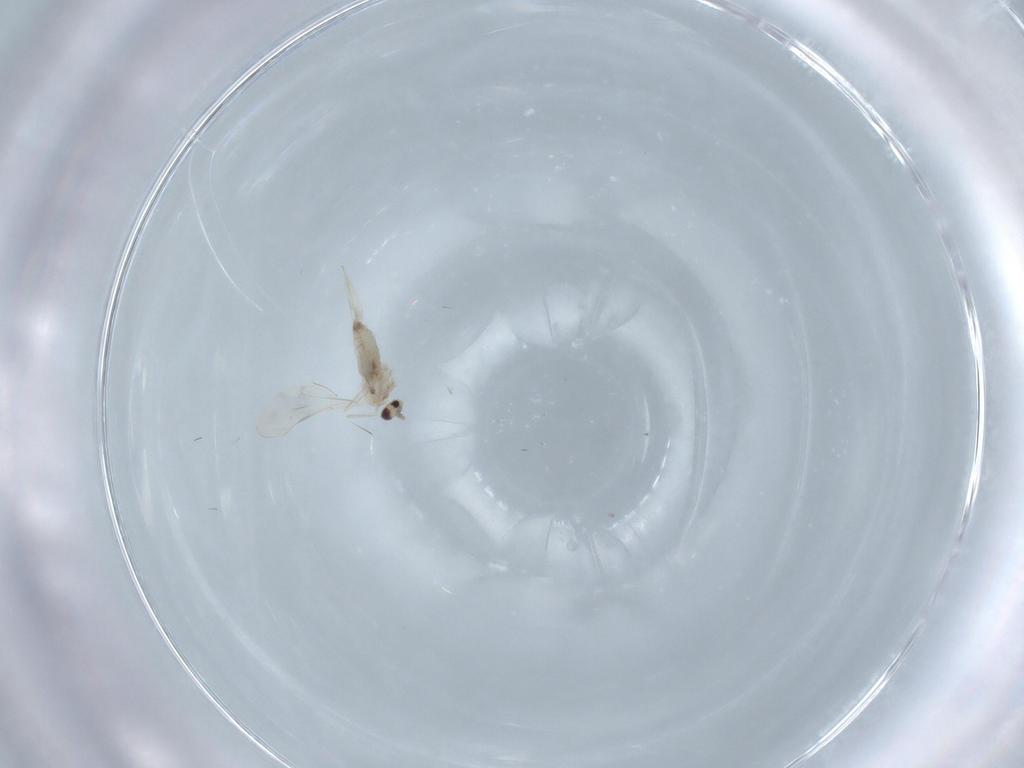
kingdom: Animalia
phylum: Arthropoda
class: Insecta
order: Diptera
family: Cecidomyiidae
